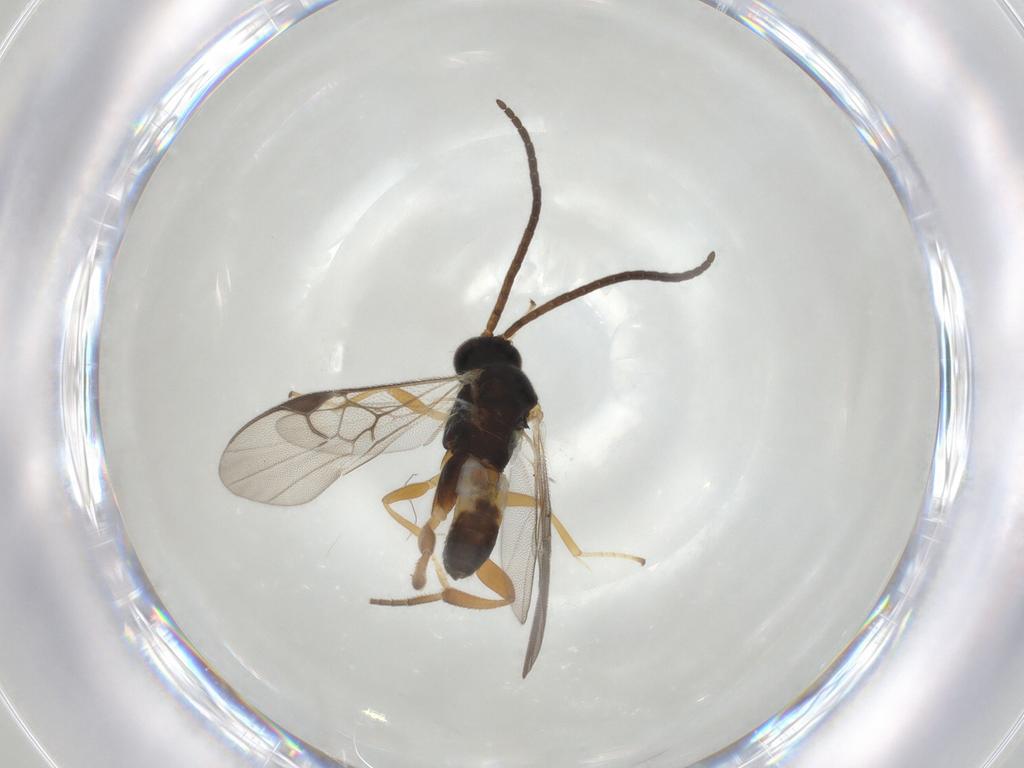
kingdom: Animalia
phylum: Arthropoda
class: Insecta
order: Hymenoptera
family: Braconidae
